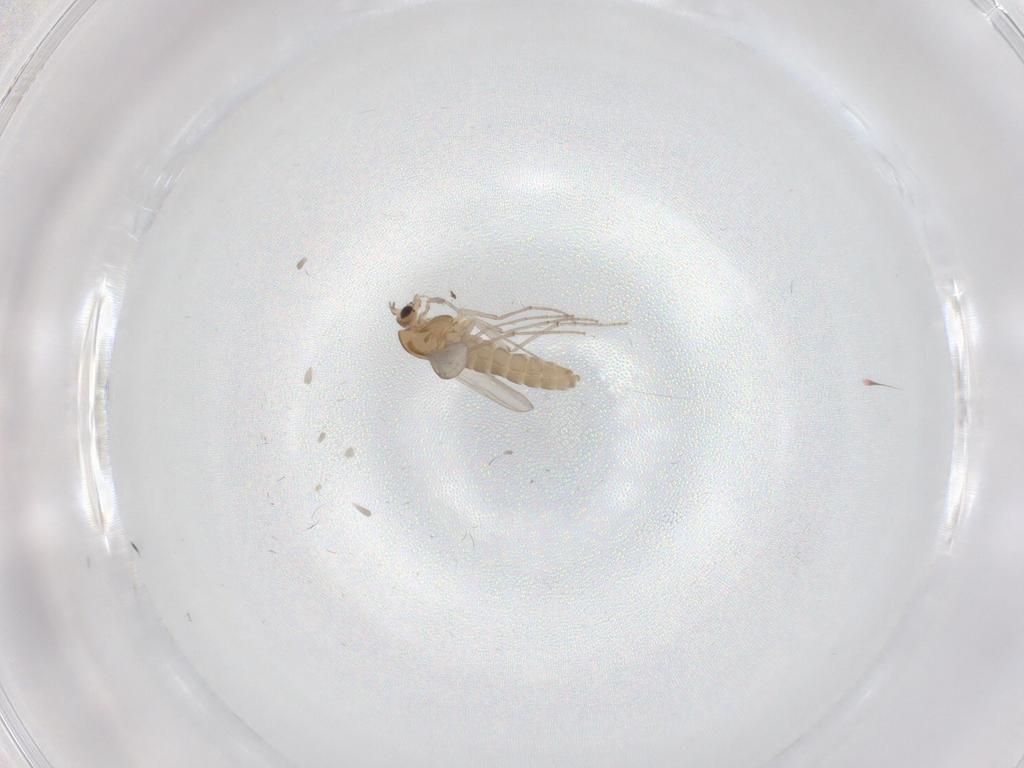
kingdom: Animalia
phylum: Arthropoda
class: Insecta
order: Diptera
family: Chironomidae
